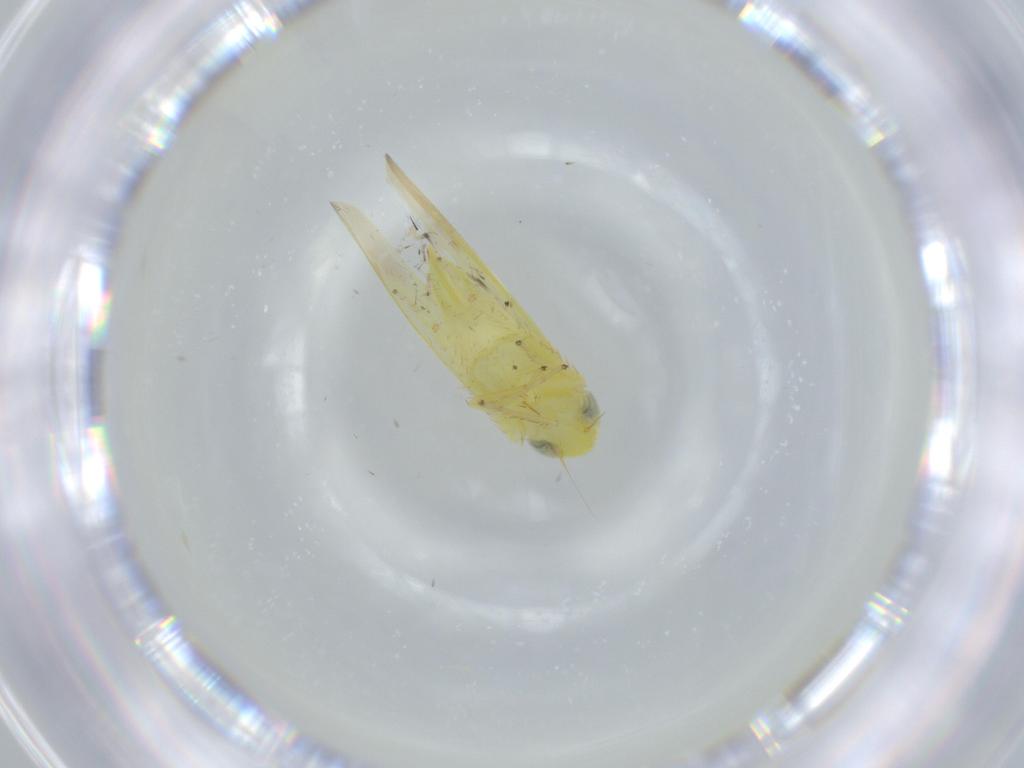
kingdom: Animalia
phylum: Arthropoda
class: Insecta
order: Hemiptera
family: Cicadellidae
